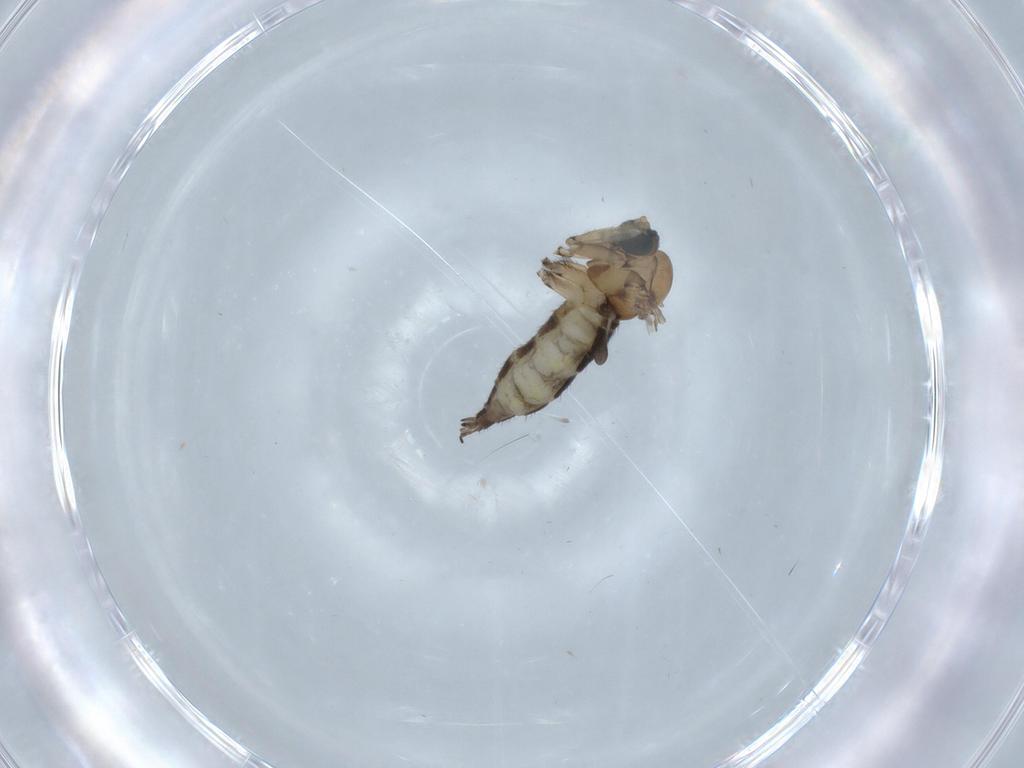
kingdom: Animalia
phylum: Arthropoda
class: Insecta
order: Diptera
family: Sciaridae
